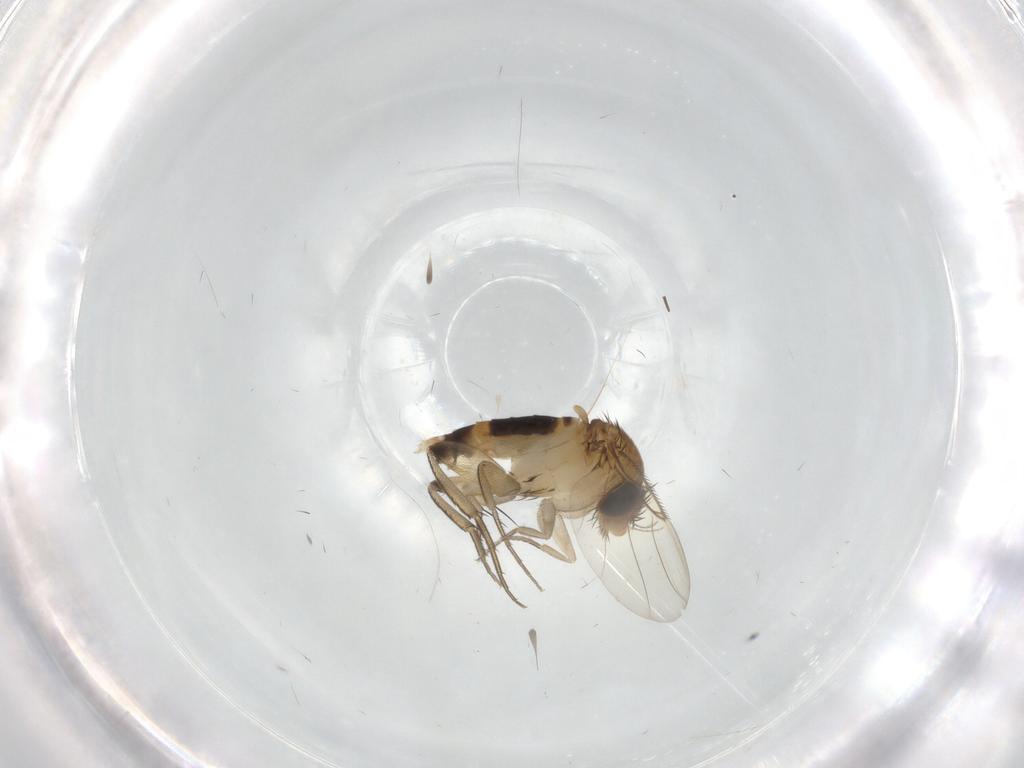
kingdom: Animalia
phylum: Arthropoda
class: Insecta
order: Diptera
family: Phoridae
